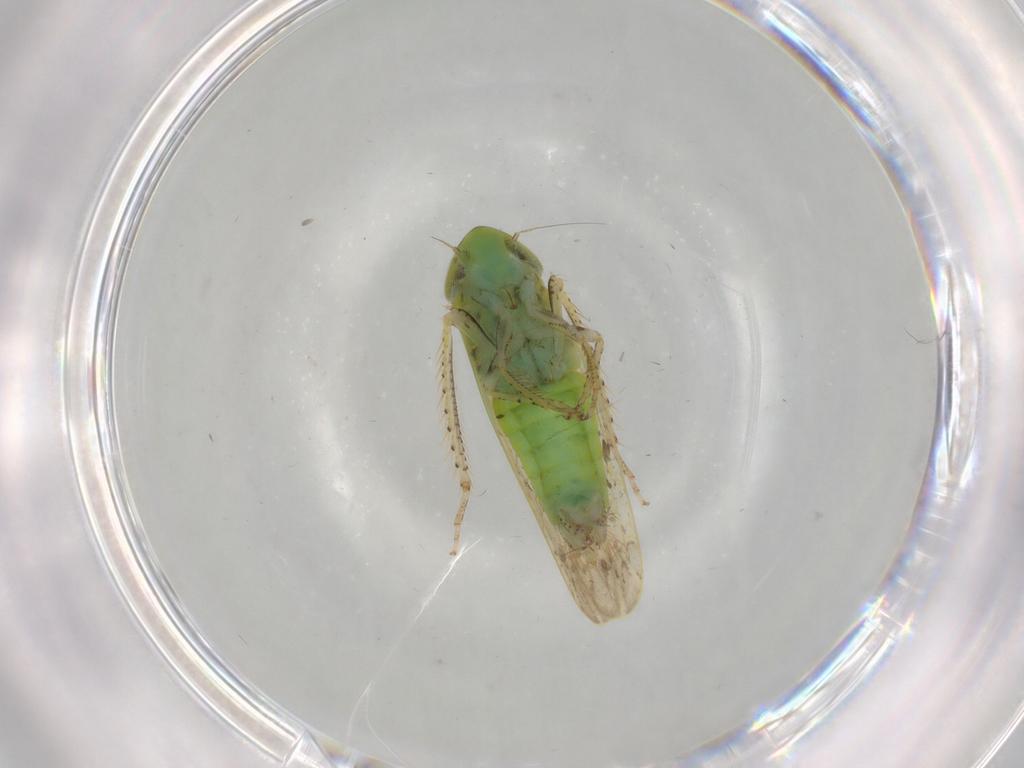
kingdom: Animalia
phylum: Arthropoda
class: Insecta
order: Hemiptera
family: Cicadellidae
